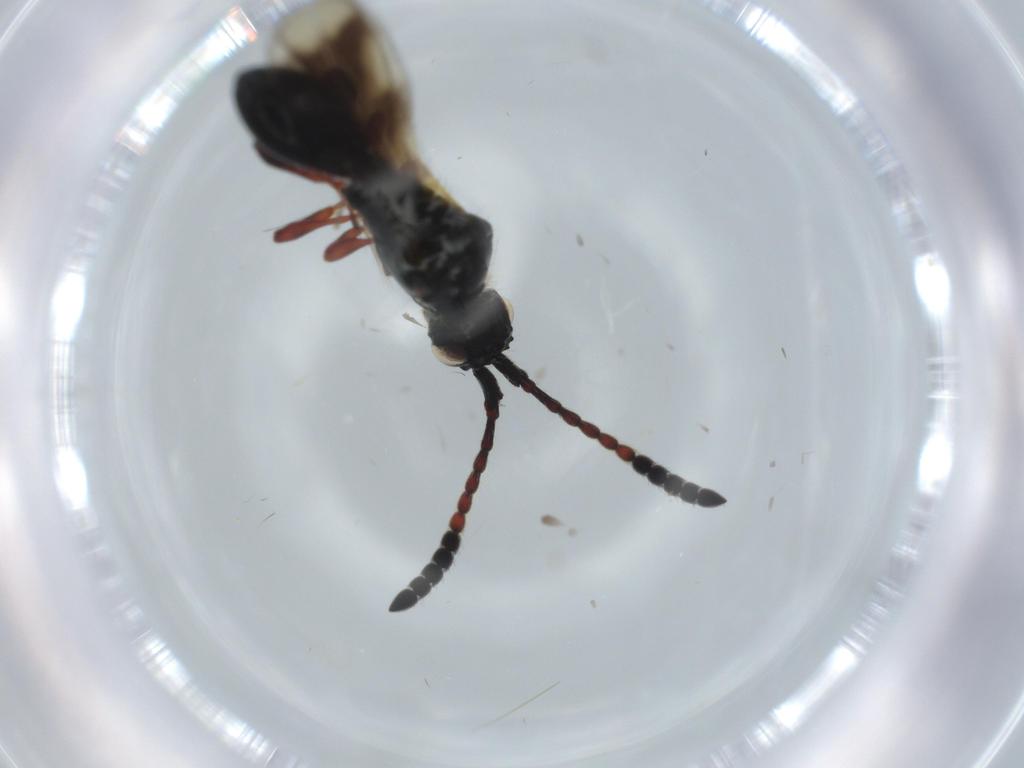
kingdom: Animalia
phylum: Arthropoda
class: Insecta
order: Hymenoptera
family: Diapriidae
